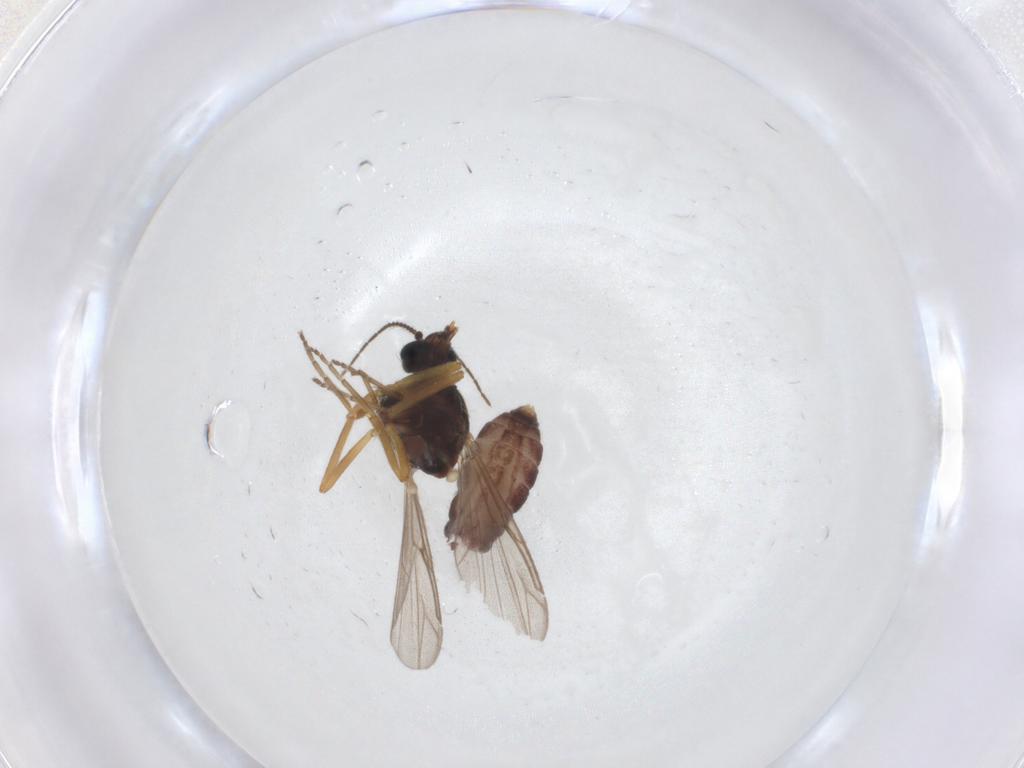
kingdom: Animalia
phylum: Arthropoda
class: Insecta
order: Diptera
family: Ceratopogonidae
